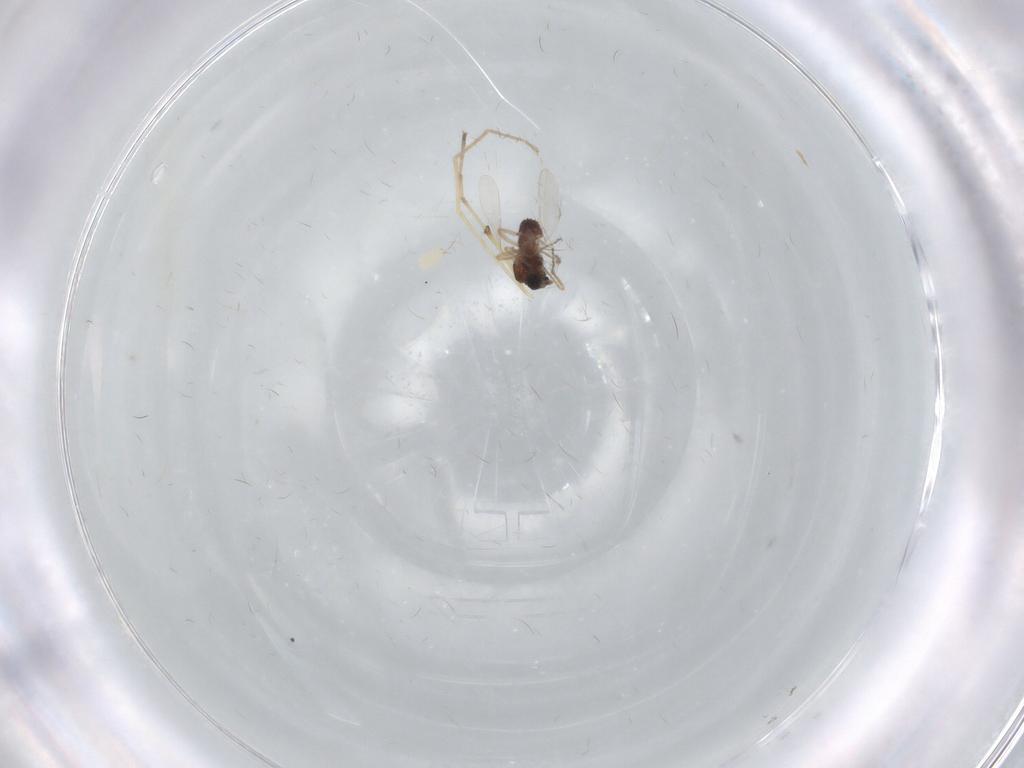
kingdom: Animalia
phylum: Arthropoda
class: Insecta
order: Diptera
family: Ceratopogonidae
